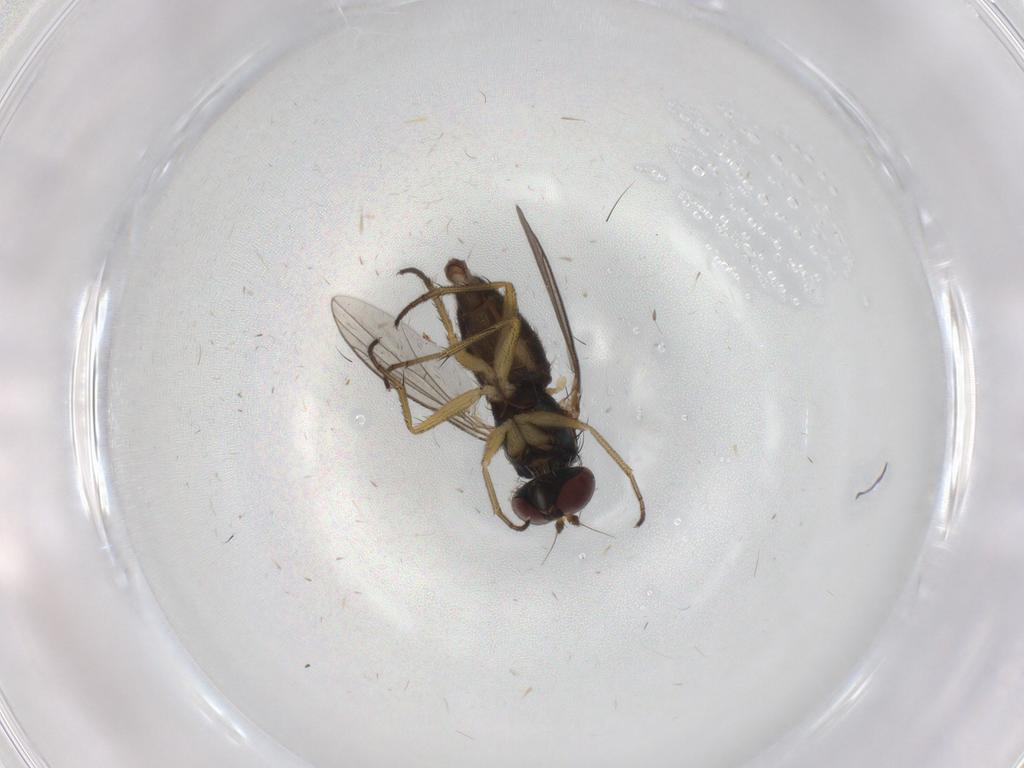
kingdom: Animalia
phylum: Arthropoda
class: Insecta
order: Diptera
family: Dolichopodidae
